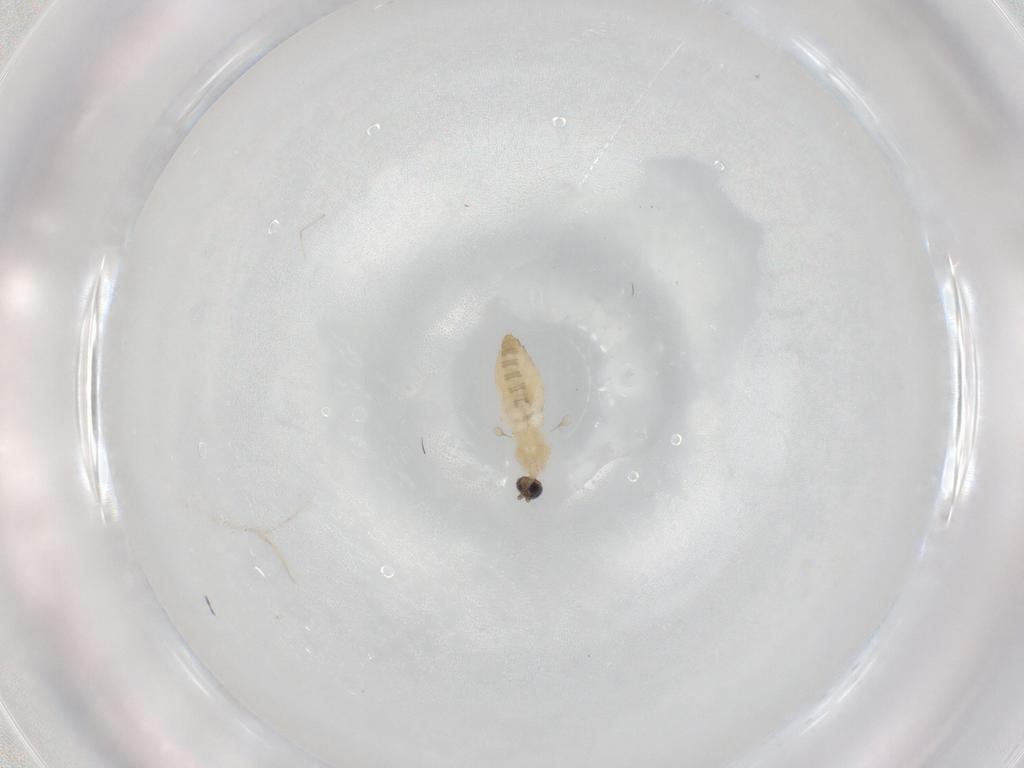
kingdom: Animalia
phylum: Arthropoda
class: Insecta
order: Diptera
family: Cecidomyiidae
